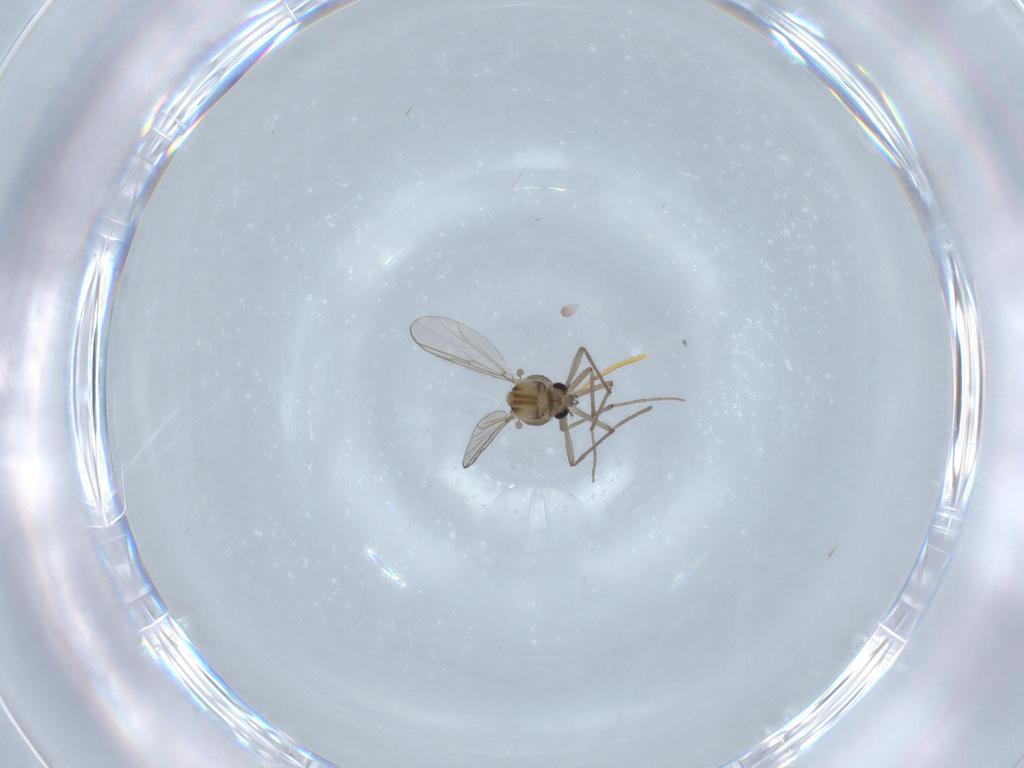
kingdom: Animalia
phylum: Arthropoda
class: Insecta
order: Diptera
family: Chironomidae
